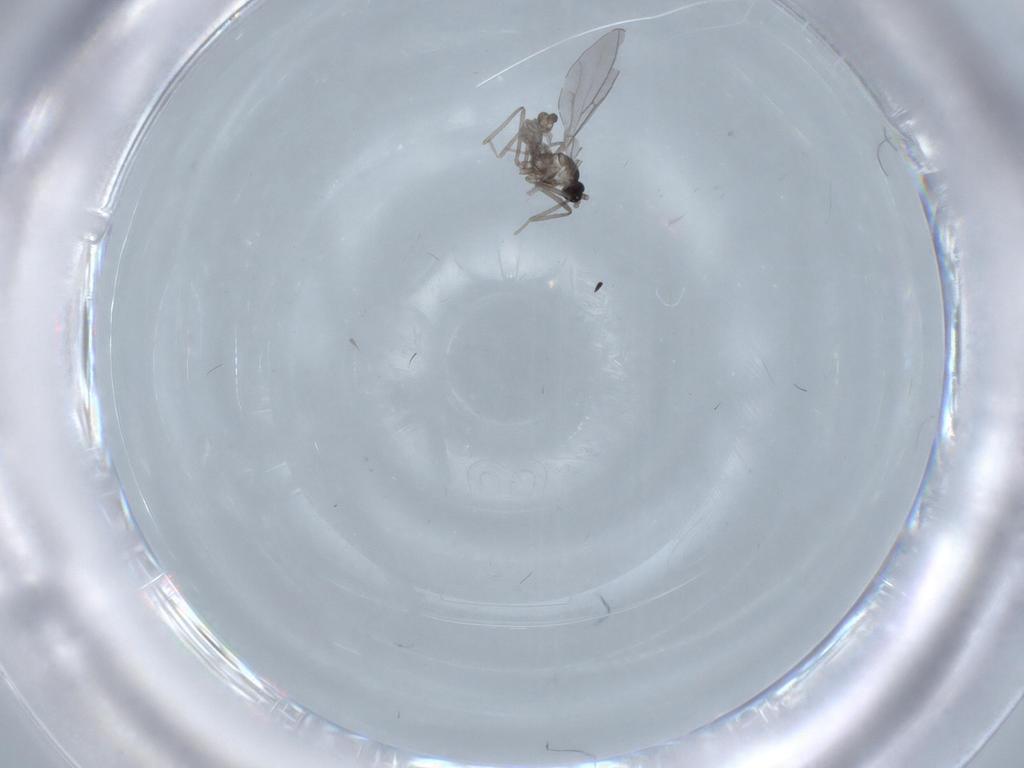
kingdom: Animalia
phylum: Arthropoda
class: Insecta
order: Diptera
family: Cecidomyiidae
